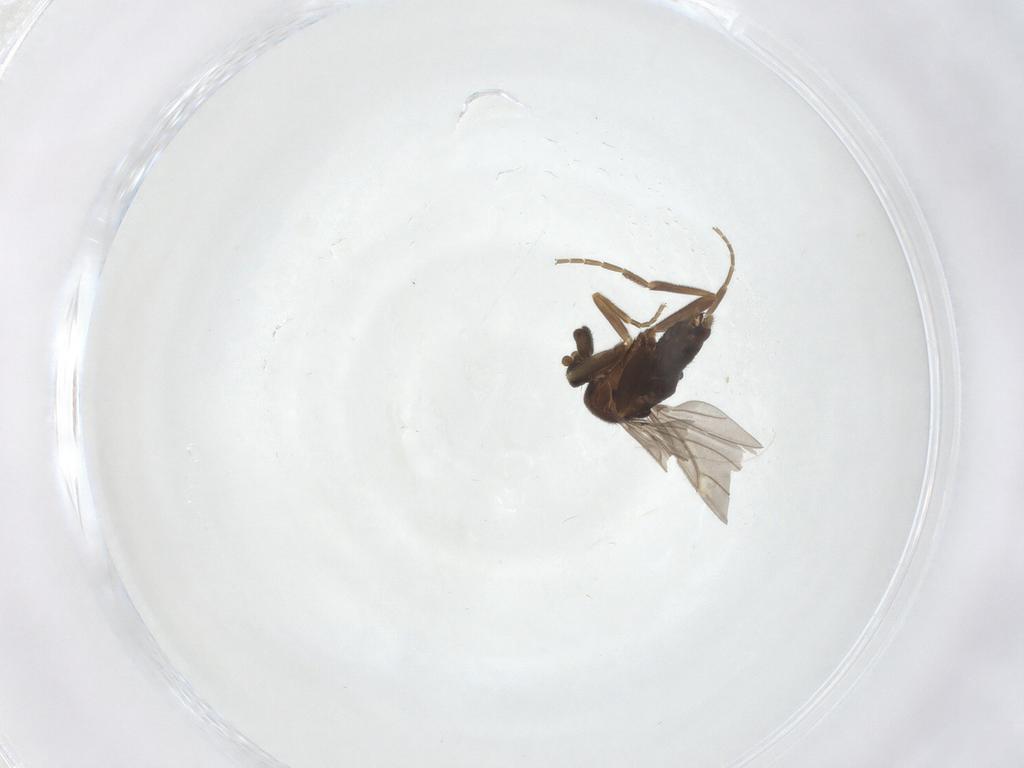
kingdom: Animalia
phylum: Arthropoda
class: Insecta
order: Diptera
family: Phoridae
